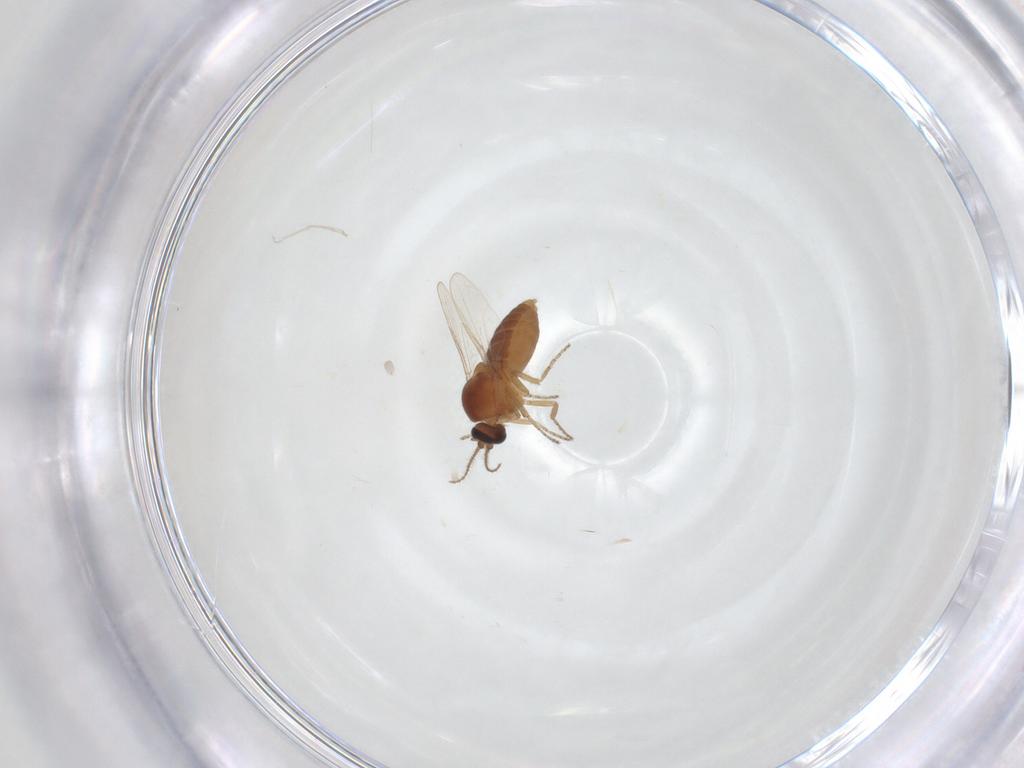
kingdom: Animalia
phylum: Arthropoda
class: Insecta
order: Diptera
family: Ceratopogonidae
